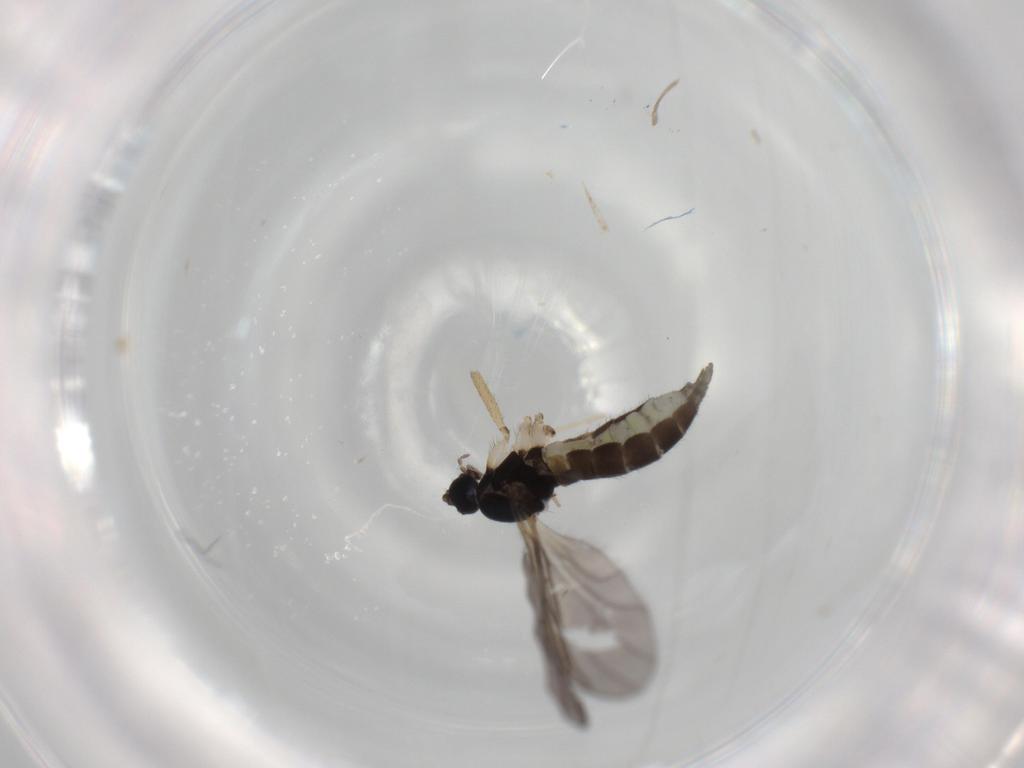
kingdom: Animalia
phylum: Arthropoda
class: Insecta
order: Diptera
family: Sciaridae
